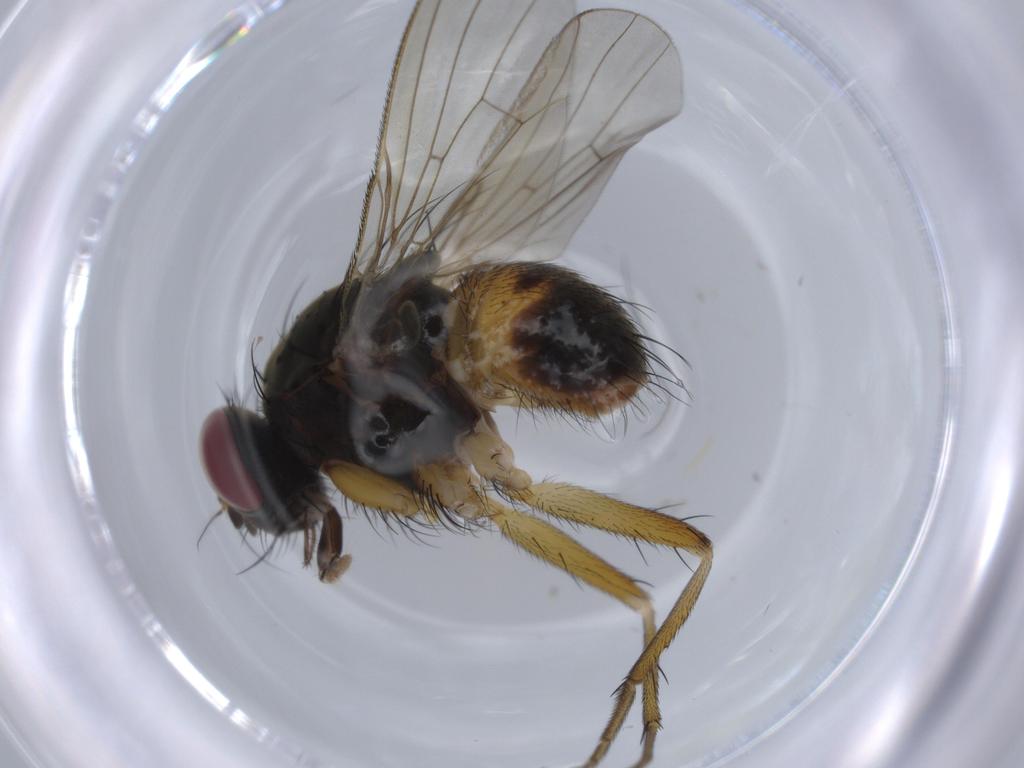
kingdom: Animalia
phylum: Arthropoda
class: Insecta
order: Diptera
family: Muscidae
